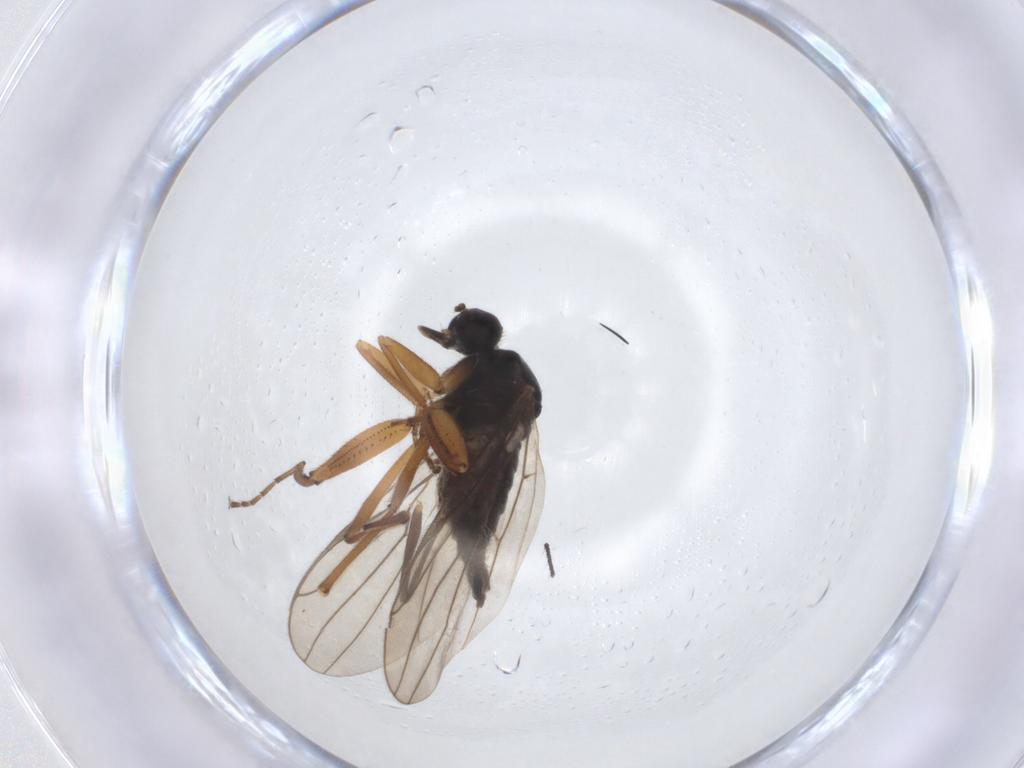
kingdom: Animalia
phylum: Arthropoda
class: Insecta
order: Diptera
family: Hybotidae
